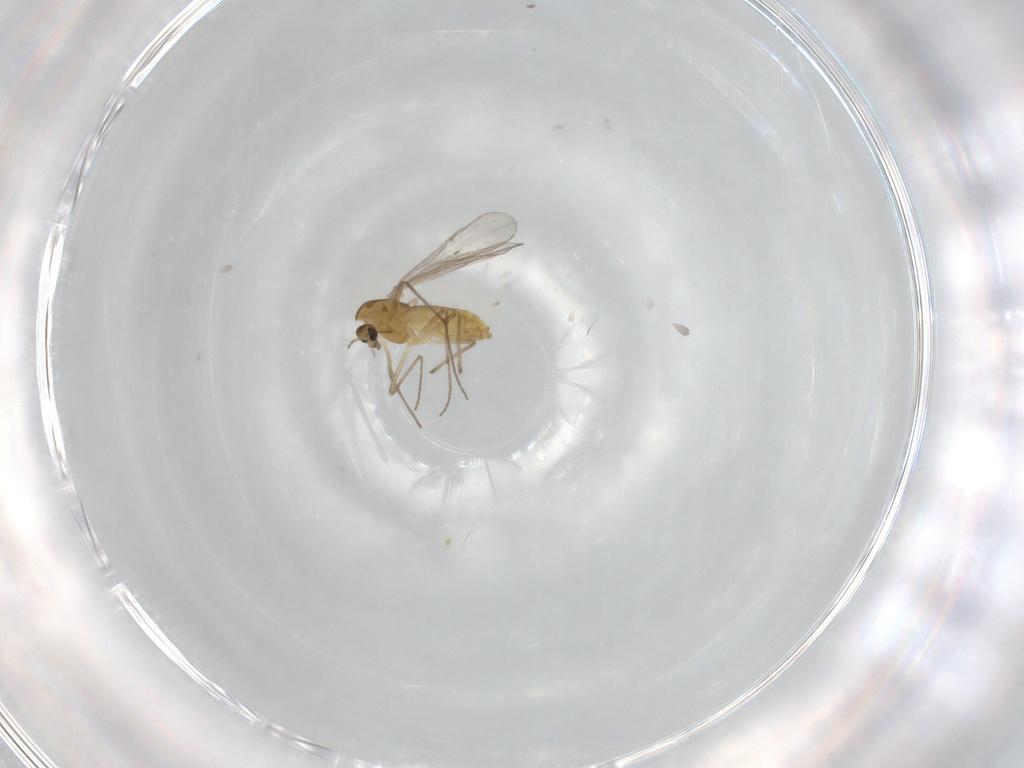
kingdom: Animalia
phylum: Arthropoda
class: Insecta
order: Diptera
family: Chironomidae
